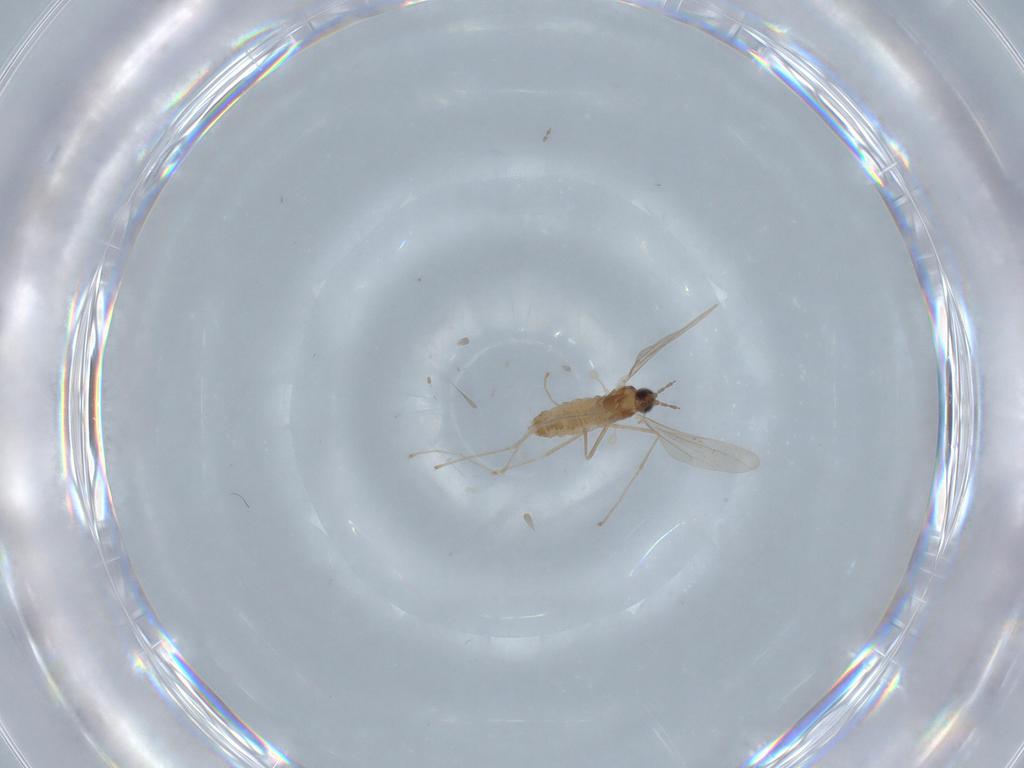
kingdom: Animalia
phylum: Arthropoda
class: Insecta
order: Diptera
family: Cecidomyiidae
